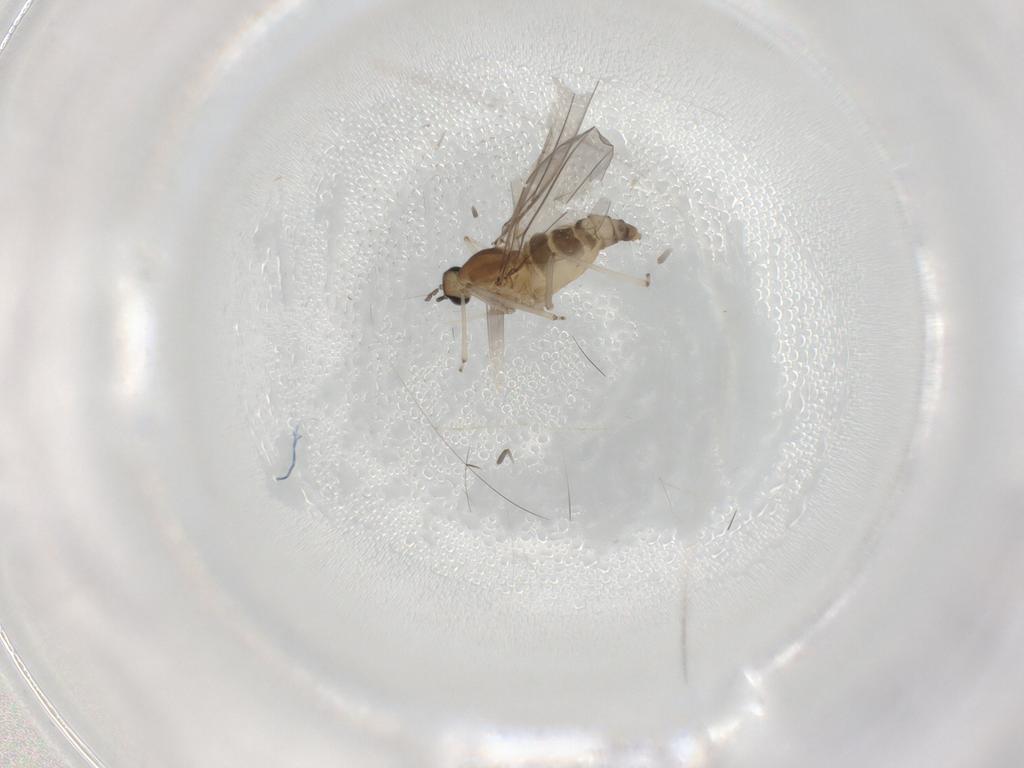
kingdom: Animalia
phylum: Arthropoda
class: Insecta
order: Diptera
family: Cecidomyiidae
